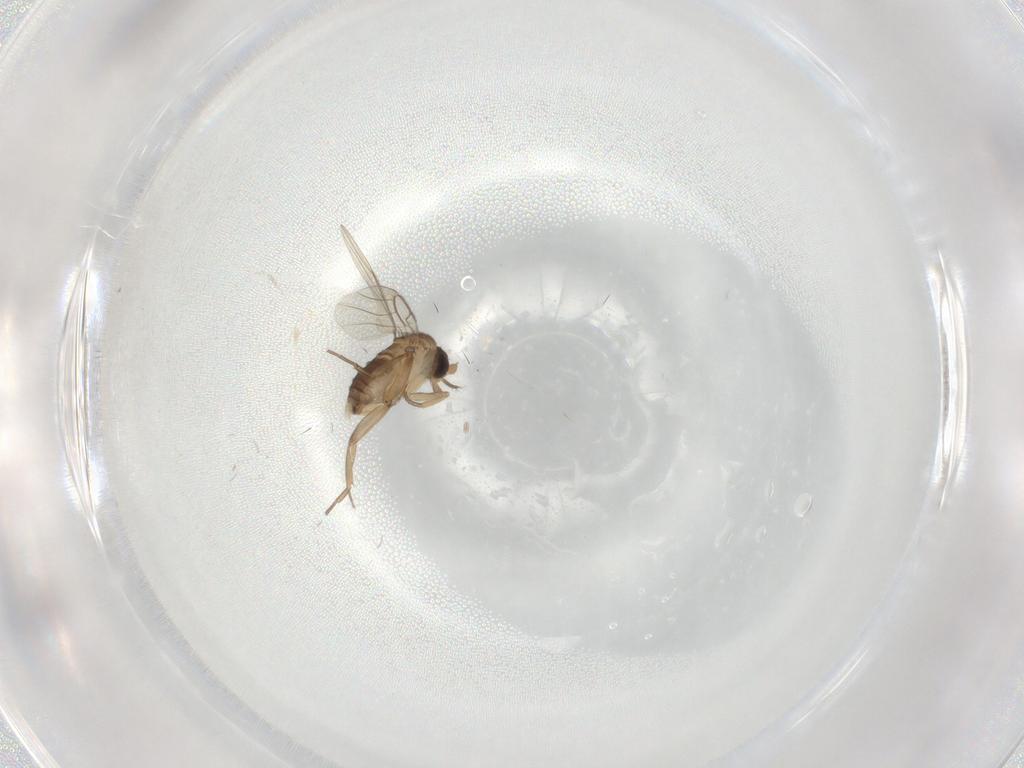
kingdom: Animalia
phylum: Arthropoda
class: Insecta
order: Diptera
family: Phoridae
